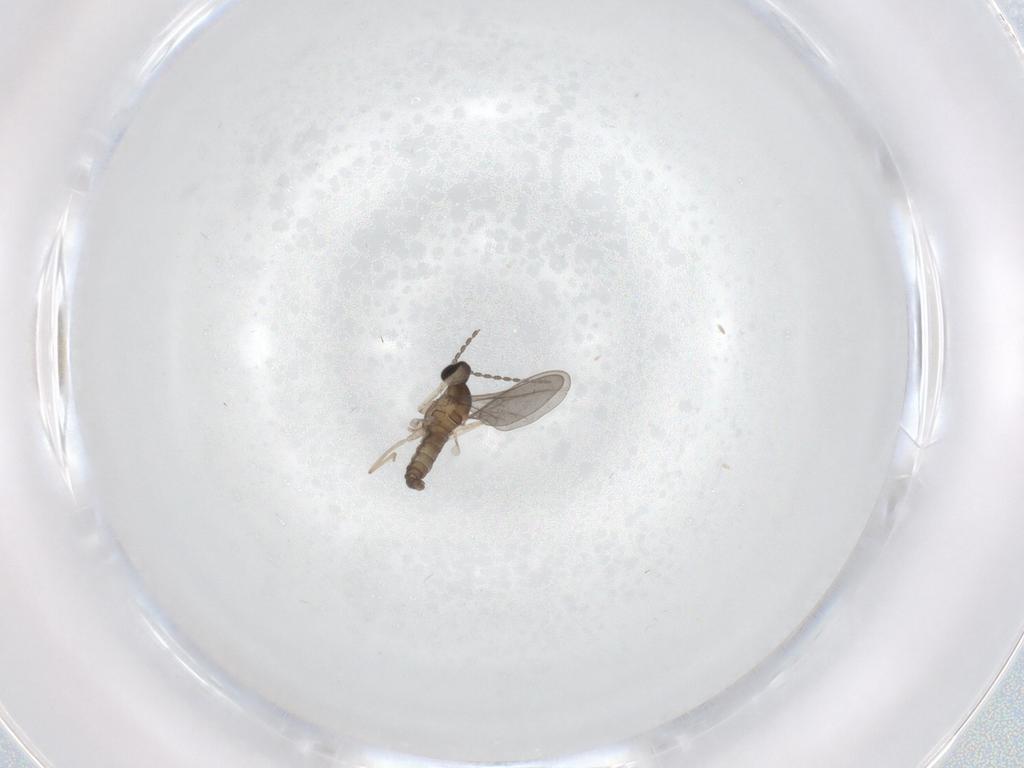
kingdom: Animalia
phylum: Arthropoda
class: Insecta
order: Diptera
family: Cecidomyiidae
